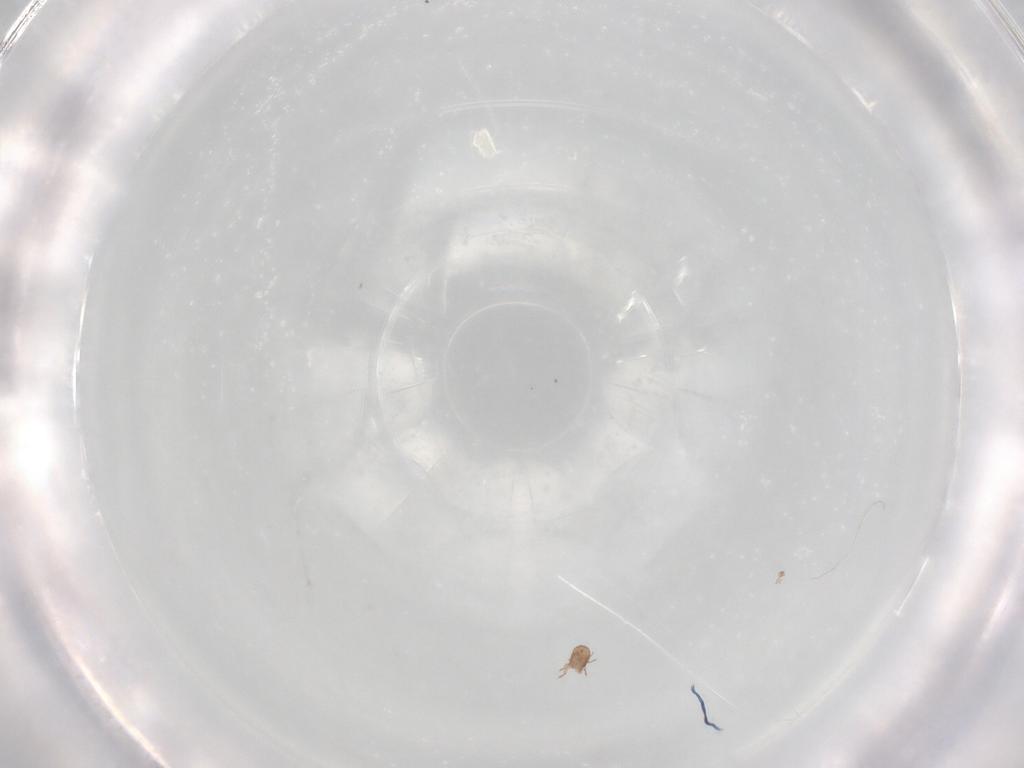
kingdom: Animalia
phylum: Arthropoda
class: Arachnida
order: Sarcoptiformes
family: Eremaeidae
